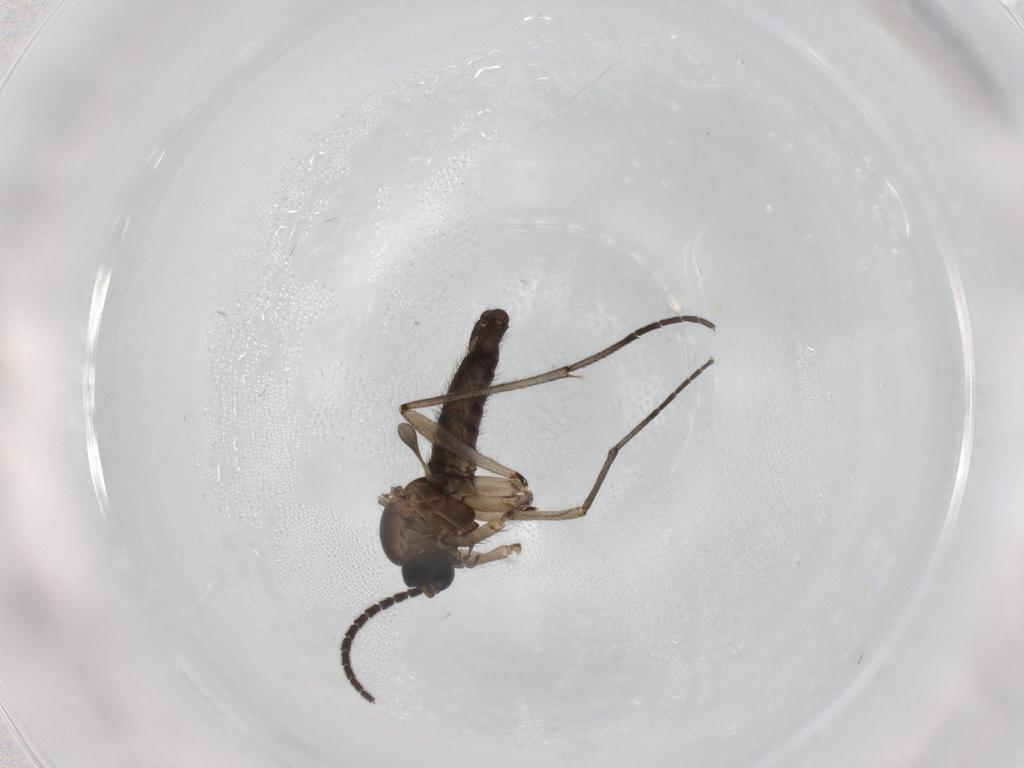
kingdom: Animalia
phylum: Arthropoda
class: Insecta
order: Diptera
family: Sciaridae
